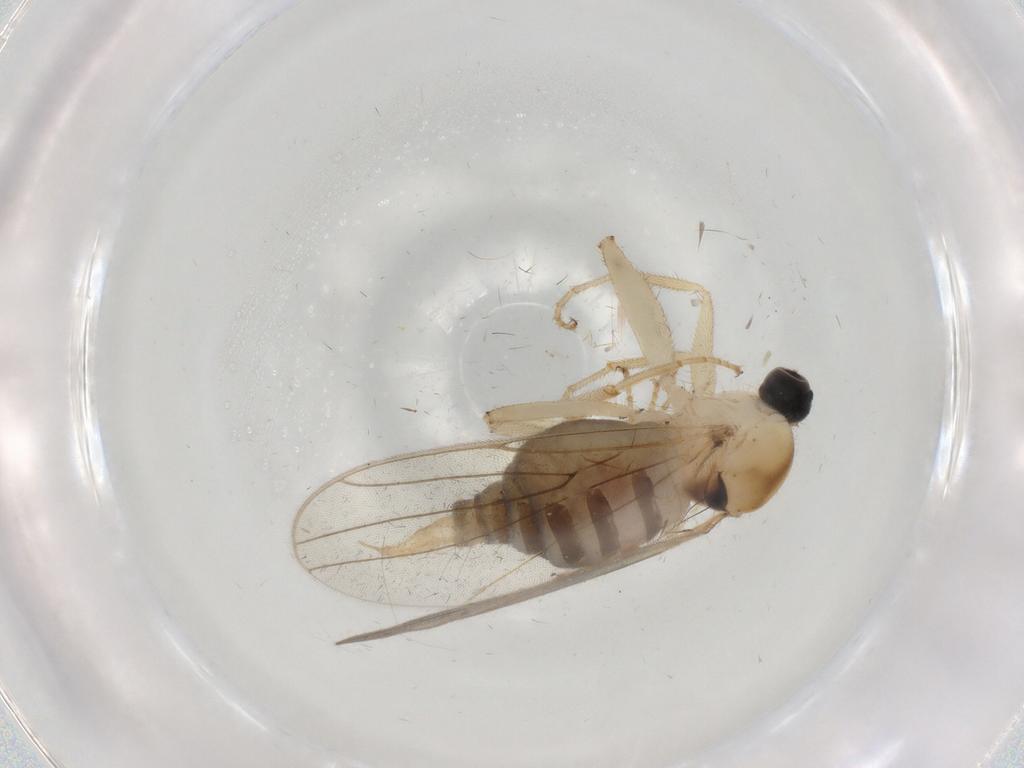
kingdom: Animalia
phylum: Arthropoda
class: Insecta
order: Diptera
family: Hybotidae
